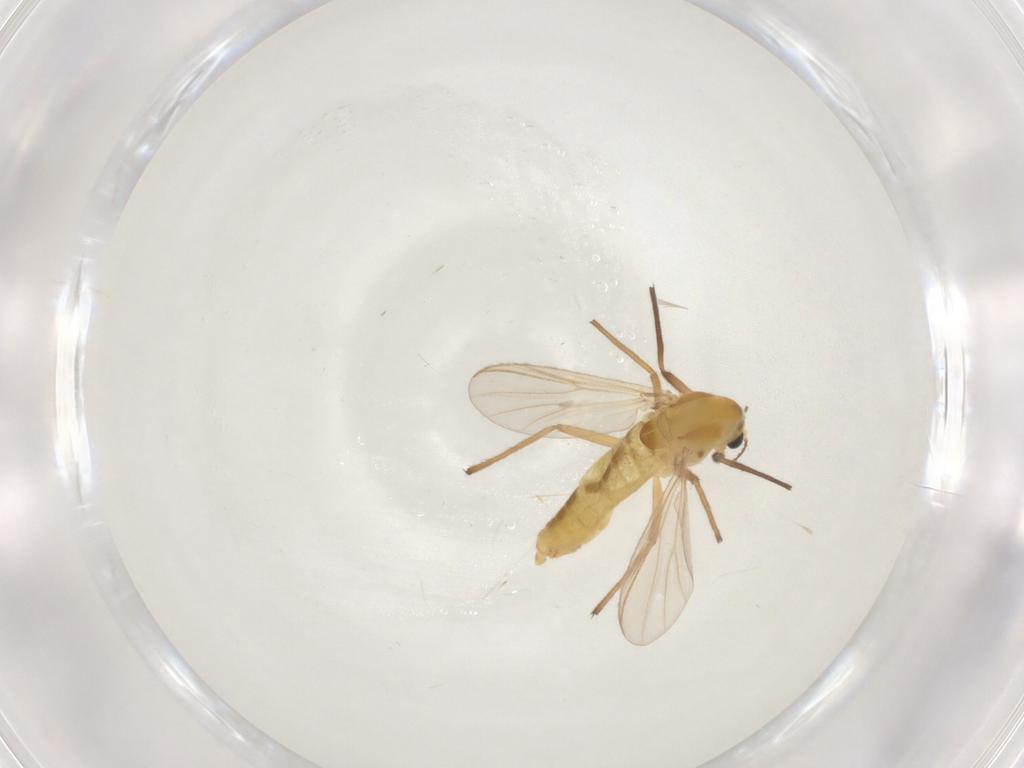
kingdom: Animalia
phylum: Arthropoda
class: Insecta
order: Diptera
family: Chironomidae
